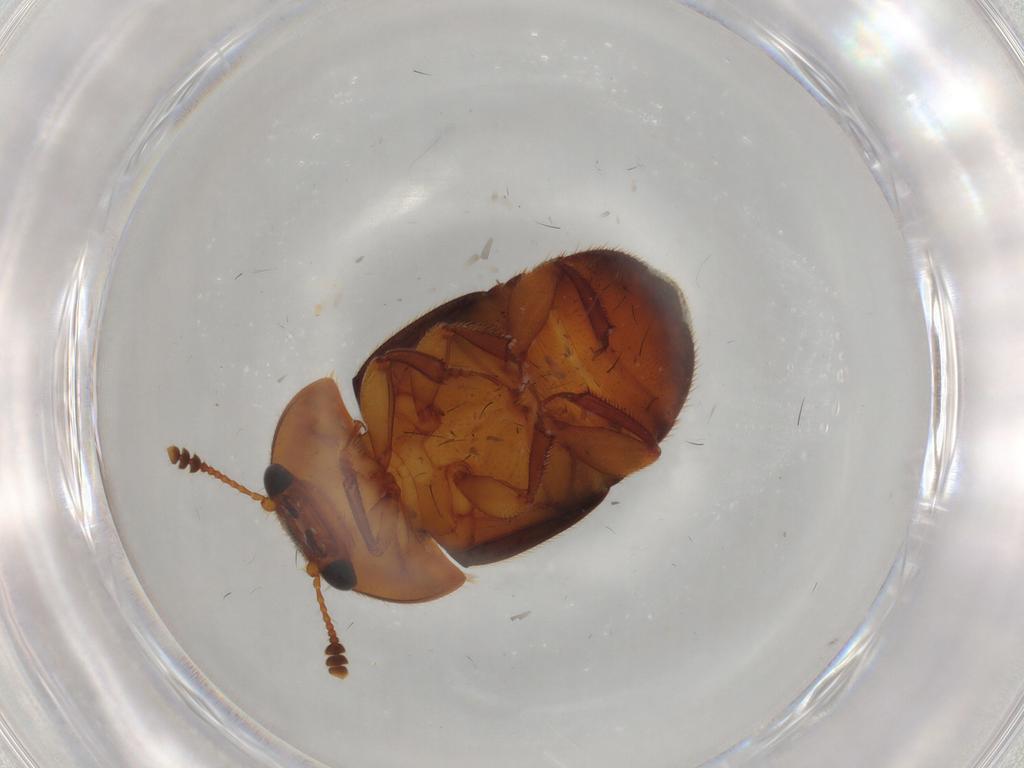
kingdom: Animalia
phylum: Arthropoda
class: Insecta
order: Coleoptera
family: Nitidulidae
